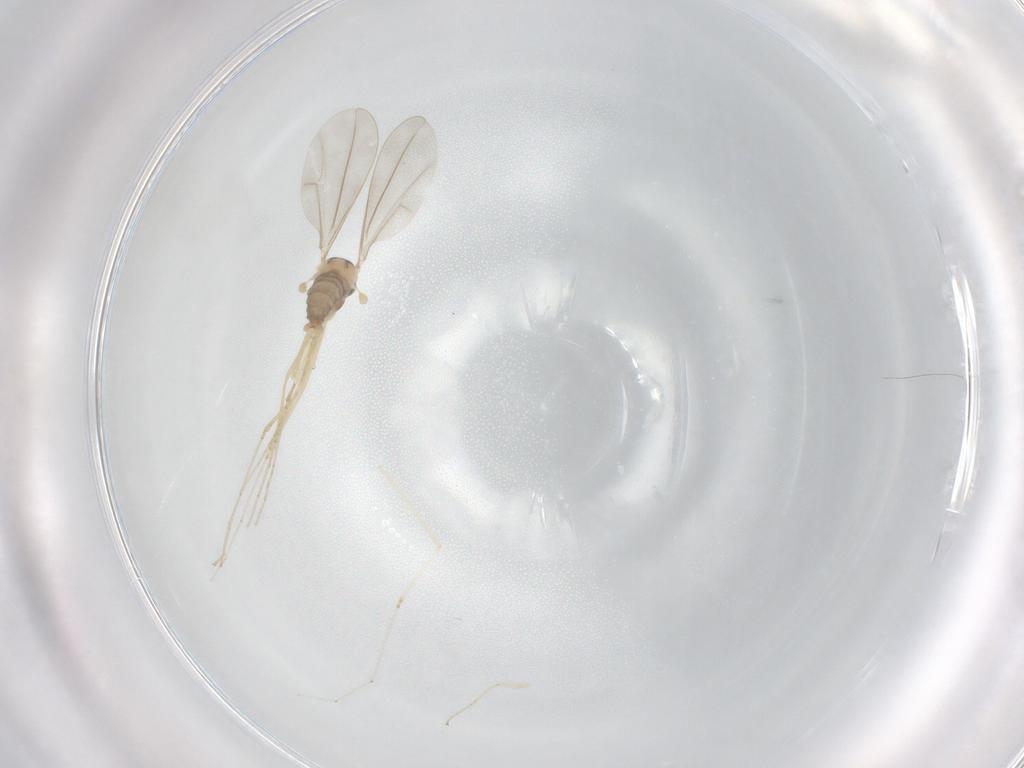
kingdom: Animalia
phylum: Arthropoda
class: Insecta
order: Diptera
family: Cecidomyiidae
